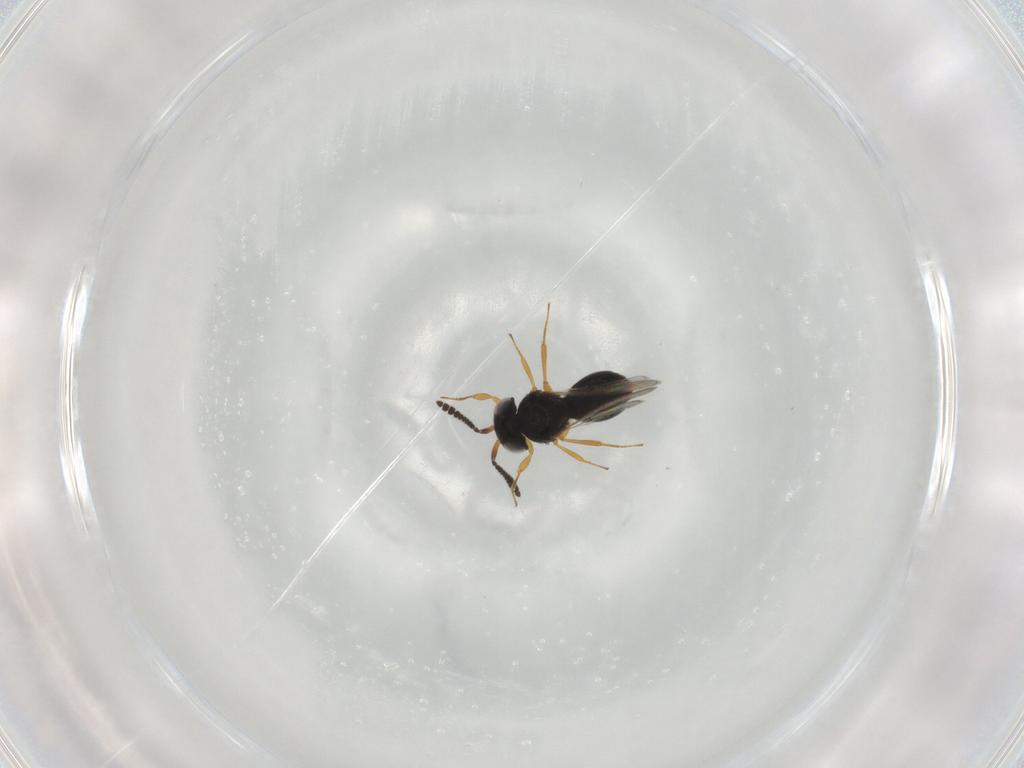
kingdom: Animalia
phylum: Arthropoda
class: Insecta
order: Hymenoptera
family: Scelionidae
